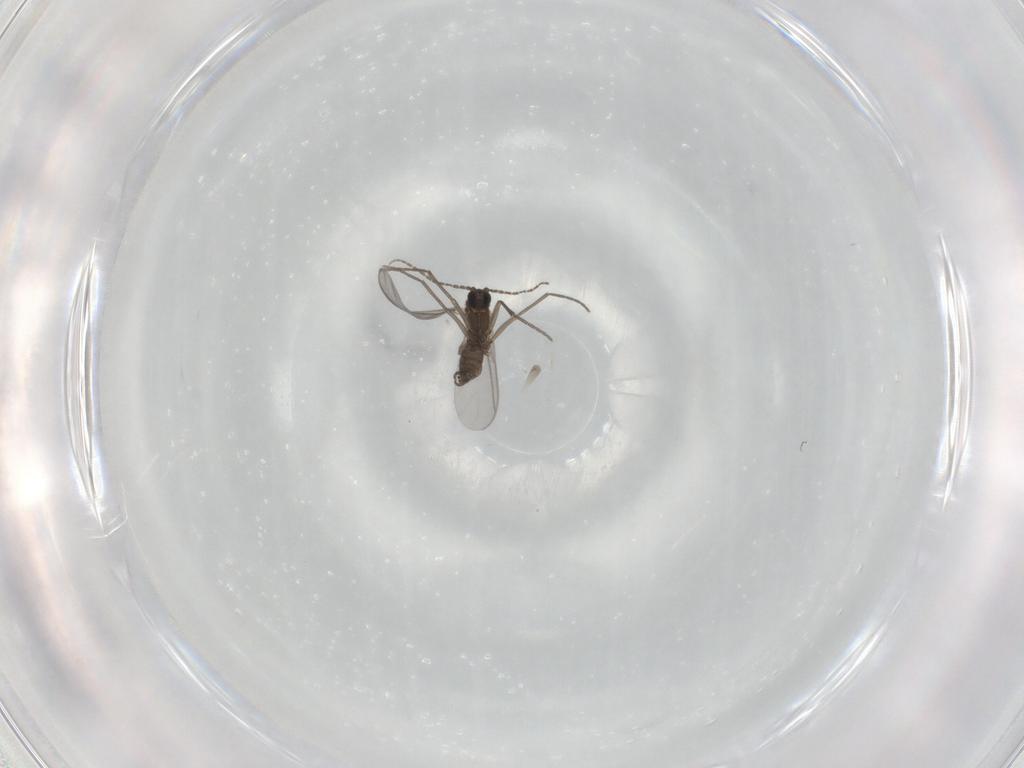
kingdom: Animalia
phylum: Arthropoda
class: Insecta
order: Diptera
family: Sciaridae
